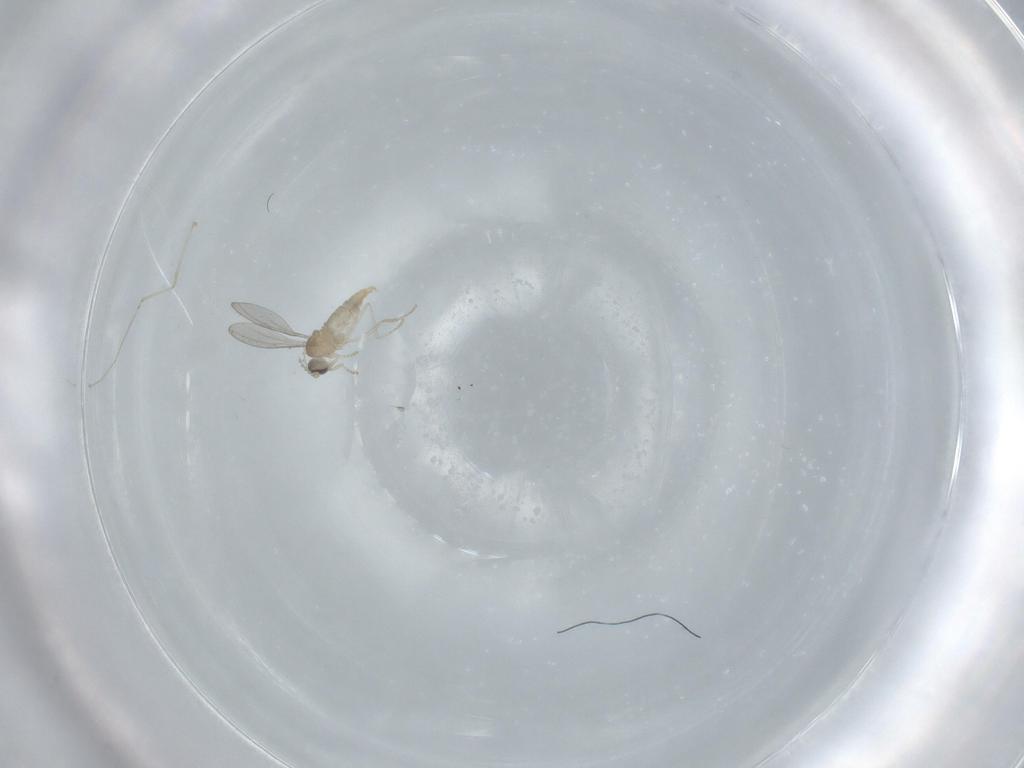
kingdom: Animalia
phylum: Arthropoda
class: Insecta
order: Diptera
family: Cecidomyiidae
